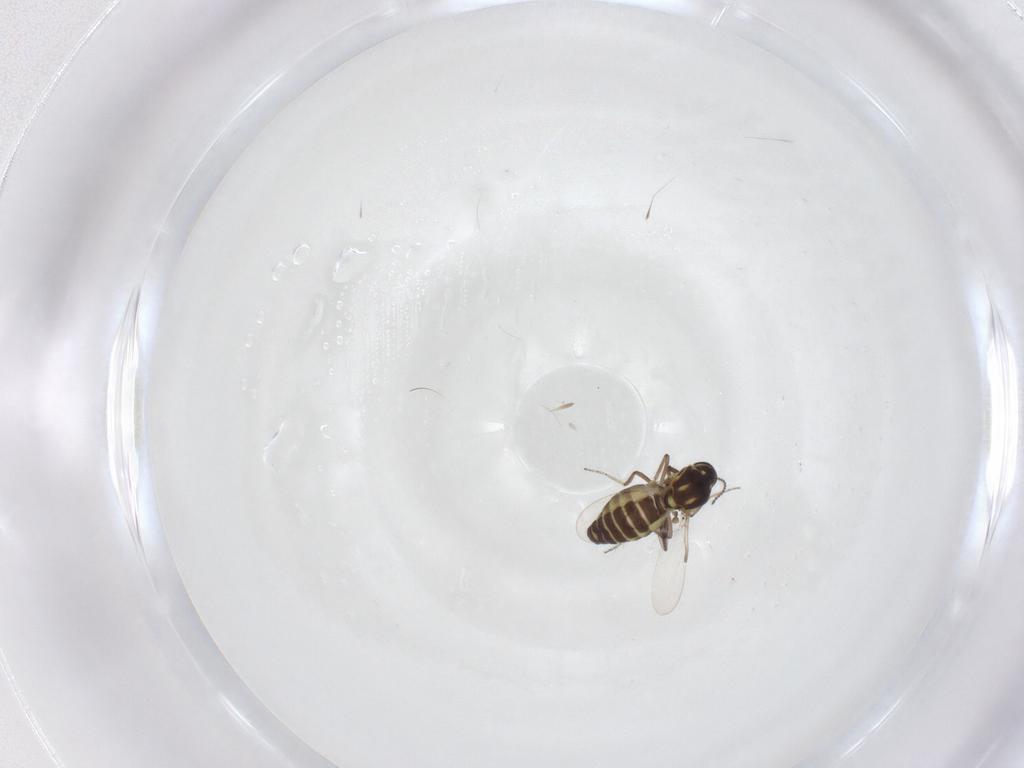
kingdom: Animalia
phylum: Arthropoda
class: Insecta
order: Diptera
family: Ceratopogonidae
